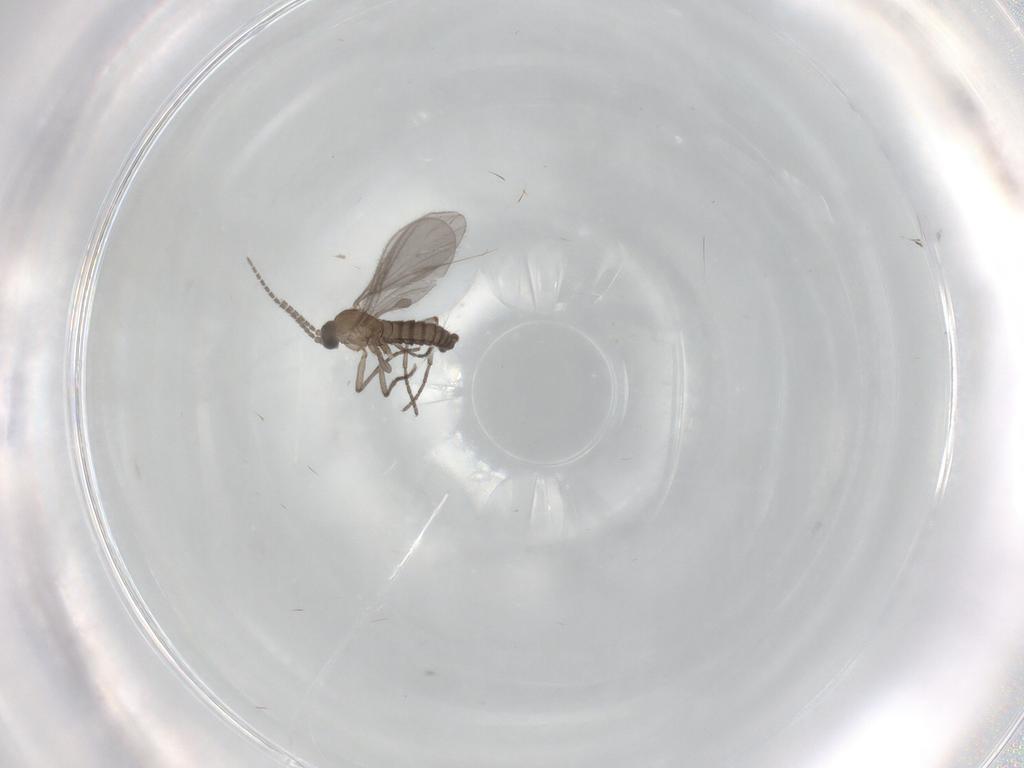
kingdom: Animalia
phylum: Arthropoda
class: Insecta
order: Diptera
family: Sciaridae
